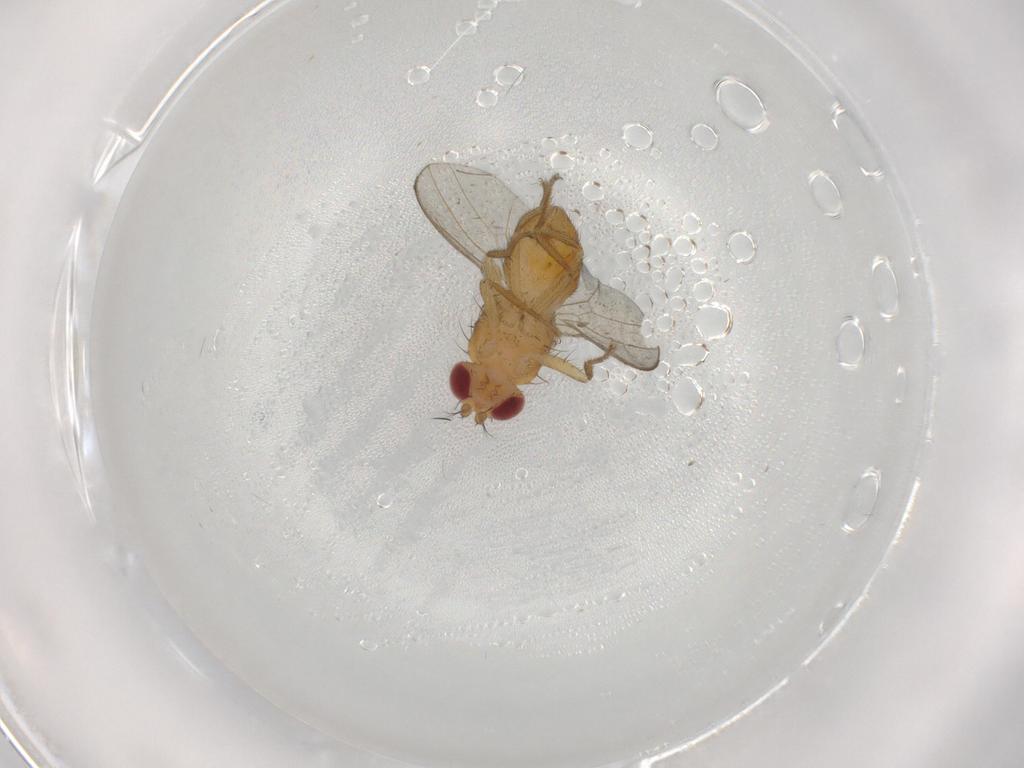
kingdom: Animalia
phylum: Arthropoda
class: Insecta
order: Diptera
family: Drosophilidae
